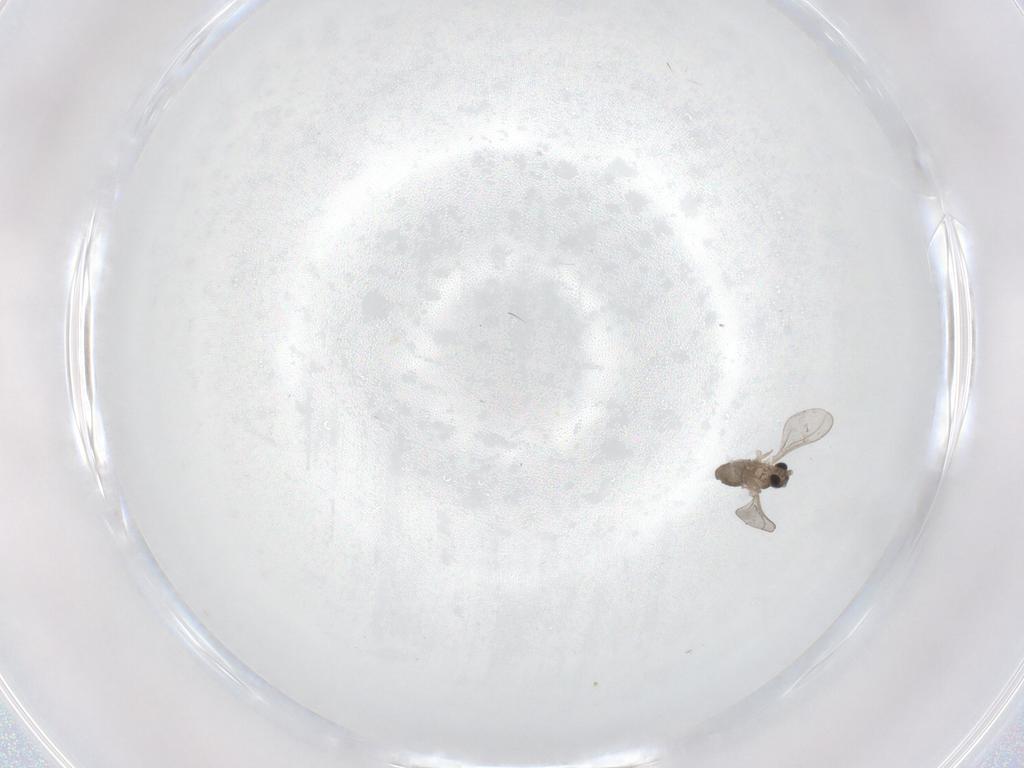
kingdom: Animalia
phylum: Arthropoda
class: Insecta
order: Diptera
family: Cecidomyiidae
